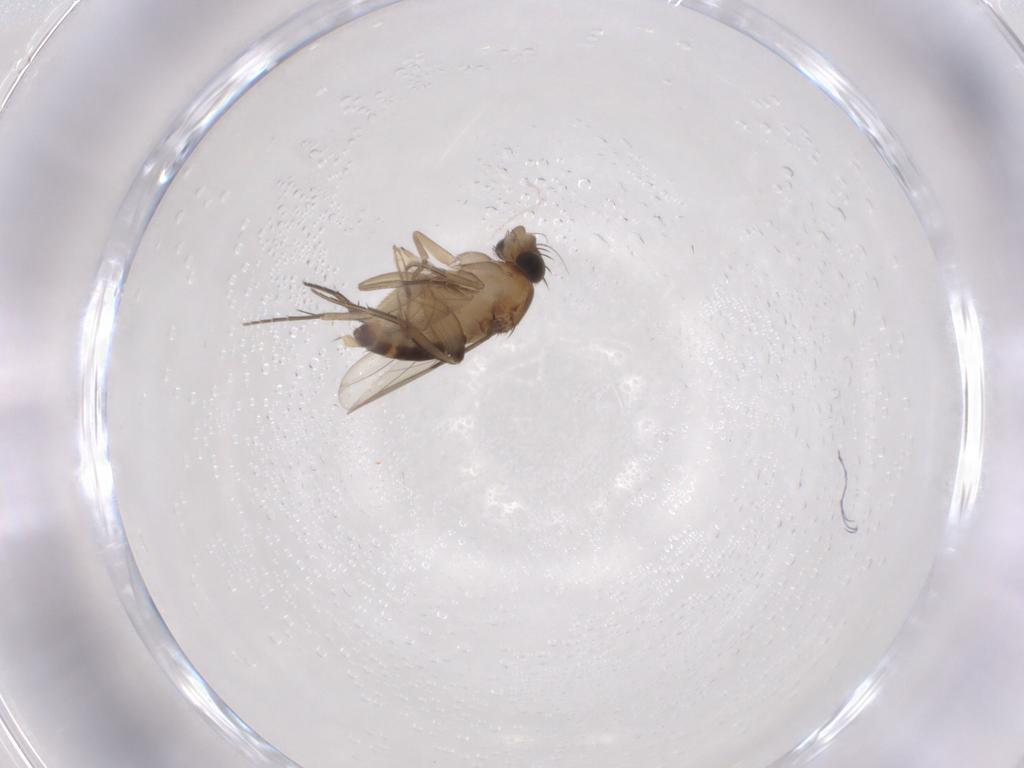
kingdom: Animalia
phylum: Arthropoda
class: Insecta
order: Diptera
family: Phoridae
